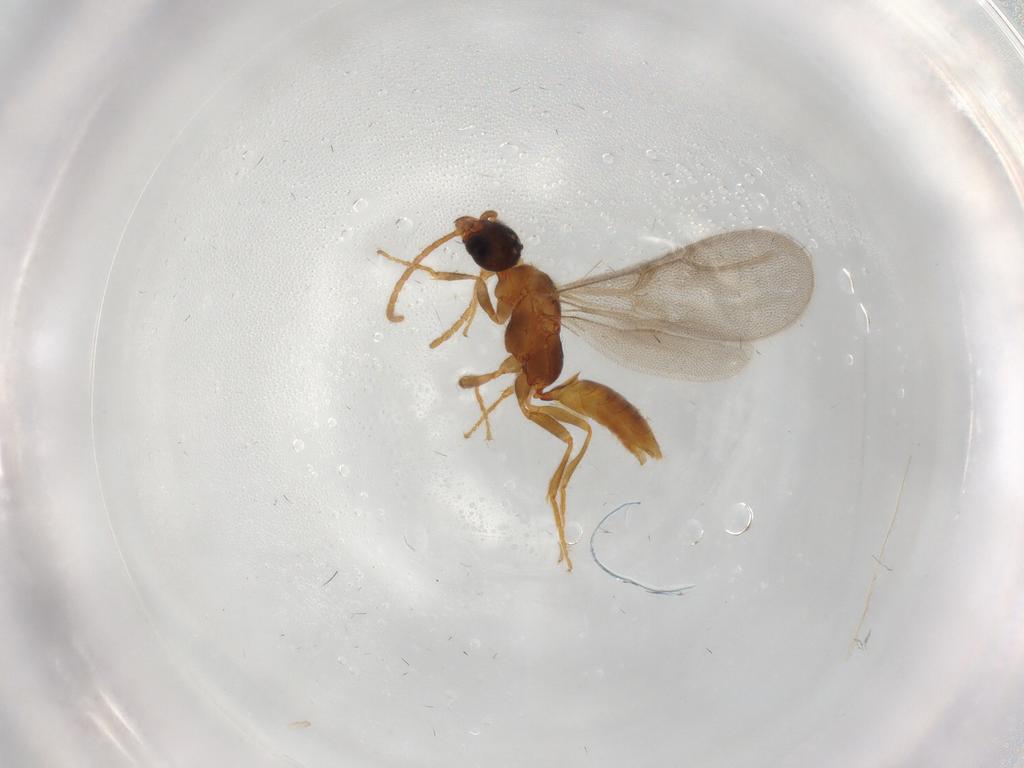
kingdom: Animalia
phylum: Arthropoda
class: Insecta
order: Hymenoptera
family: Bethylidae
